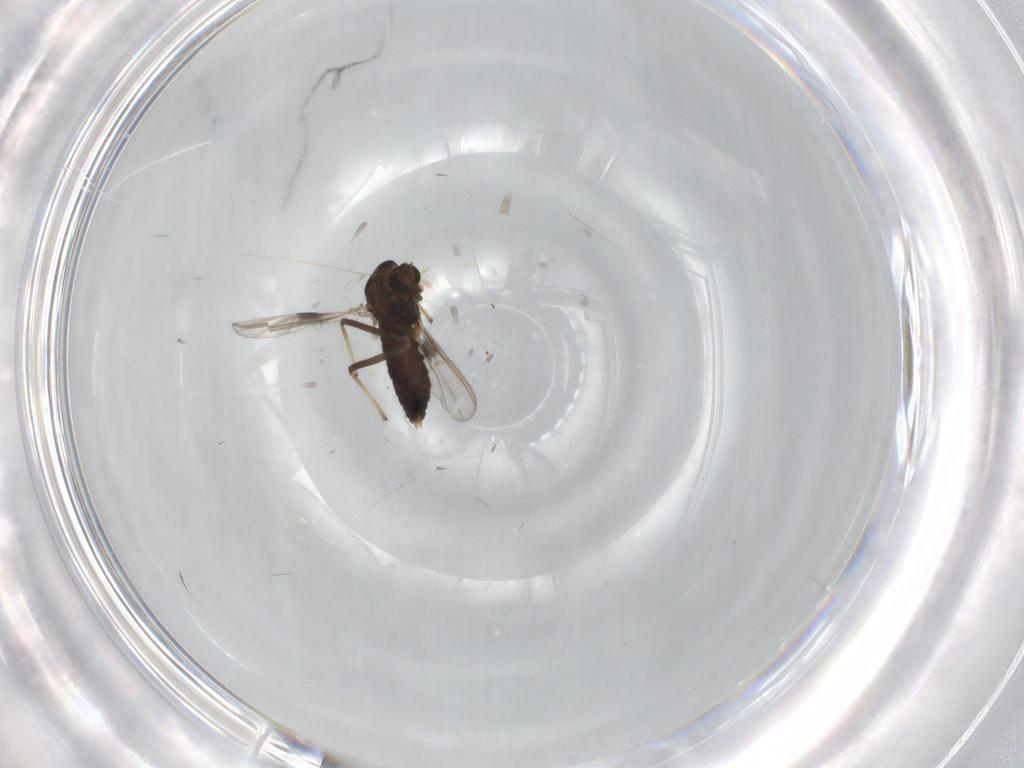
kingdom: Animalia
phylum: Arthropoda
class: Insecta
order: Diptera
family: Chironomidae
